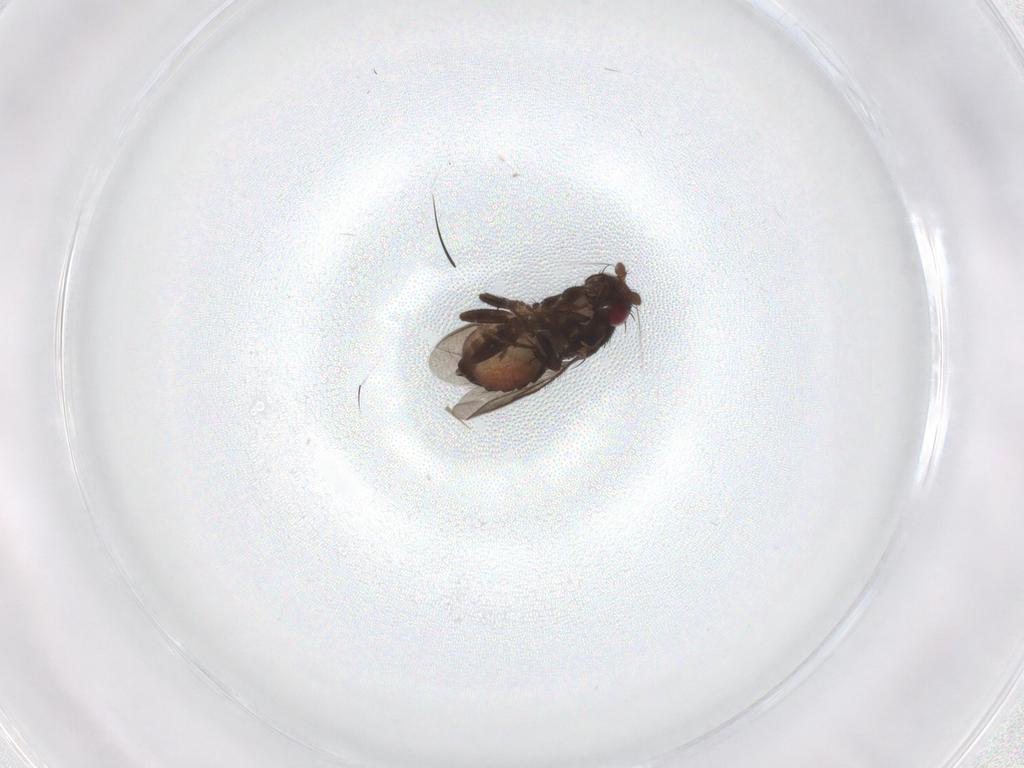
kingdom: Animalia
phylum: Arthropoda
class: Insecta
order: Diptera
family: Sphaeroceridae
